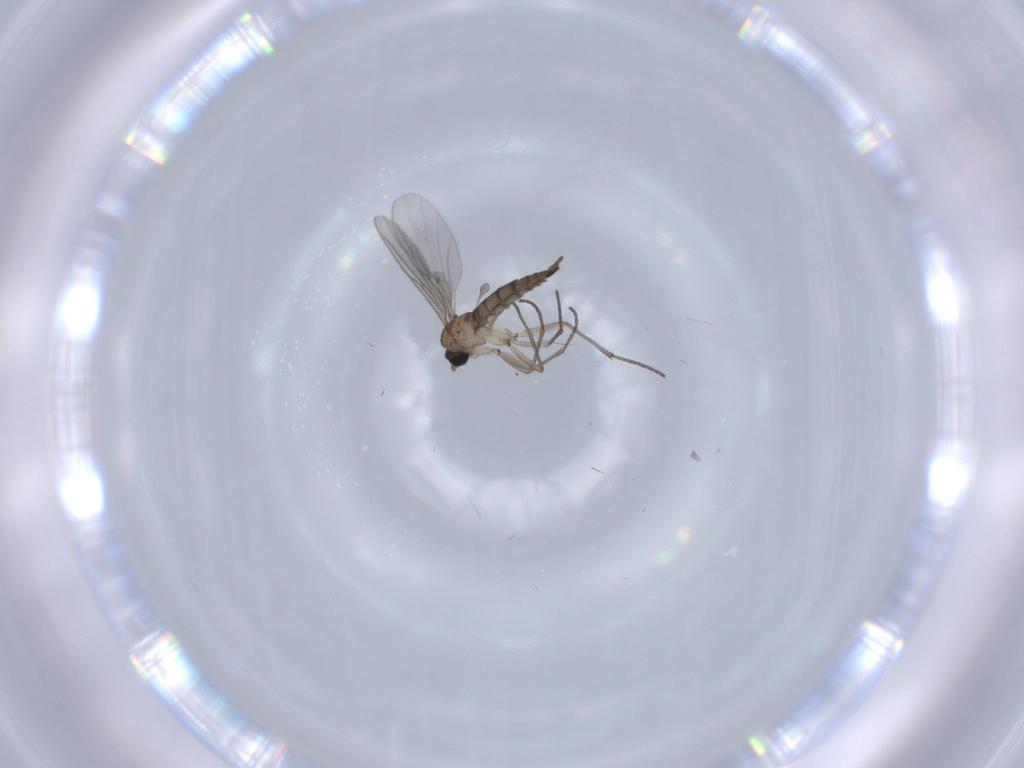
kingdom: Animalia
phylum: Arthropoda
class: Insecta
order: Diptera
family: Sciaridae
